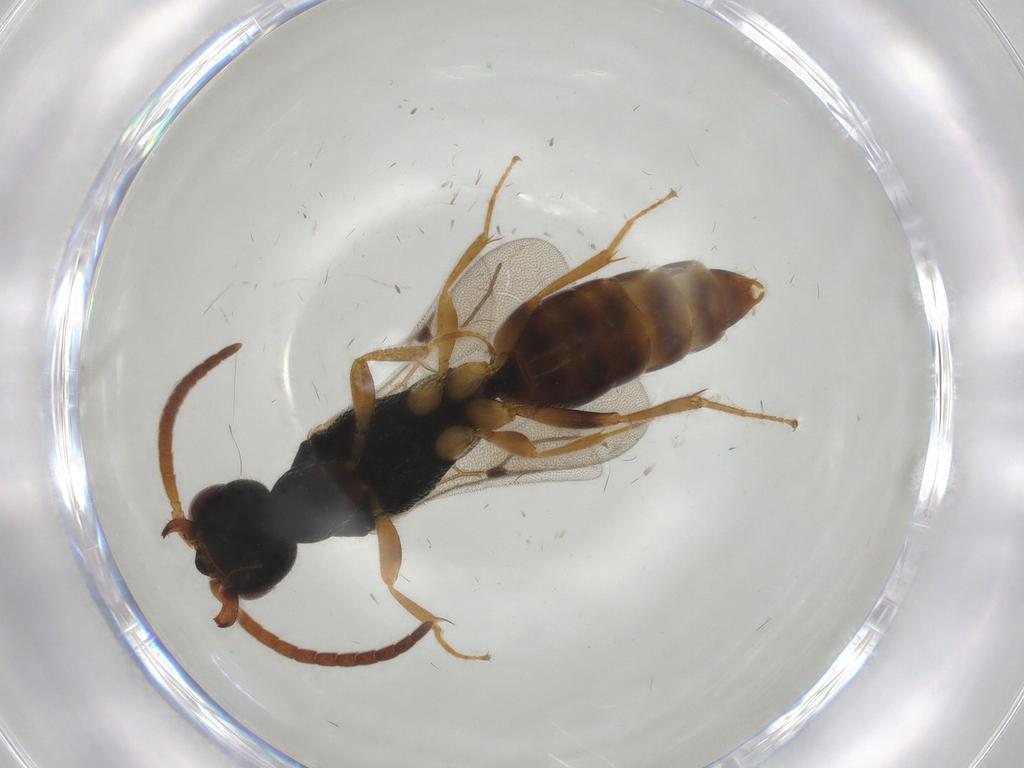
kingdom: Animalia
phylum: Arthropoda
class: Insecta
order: Hymenoptera
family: Bethylidae
